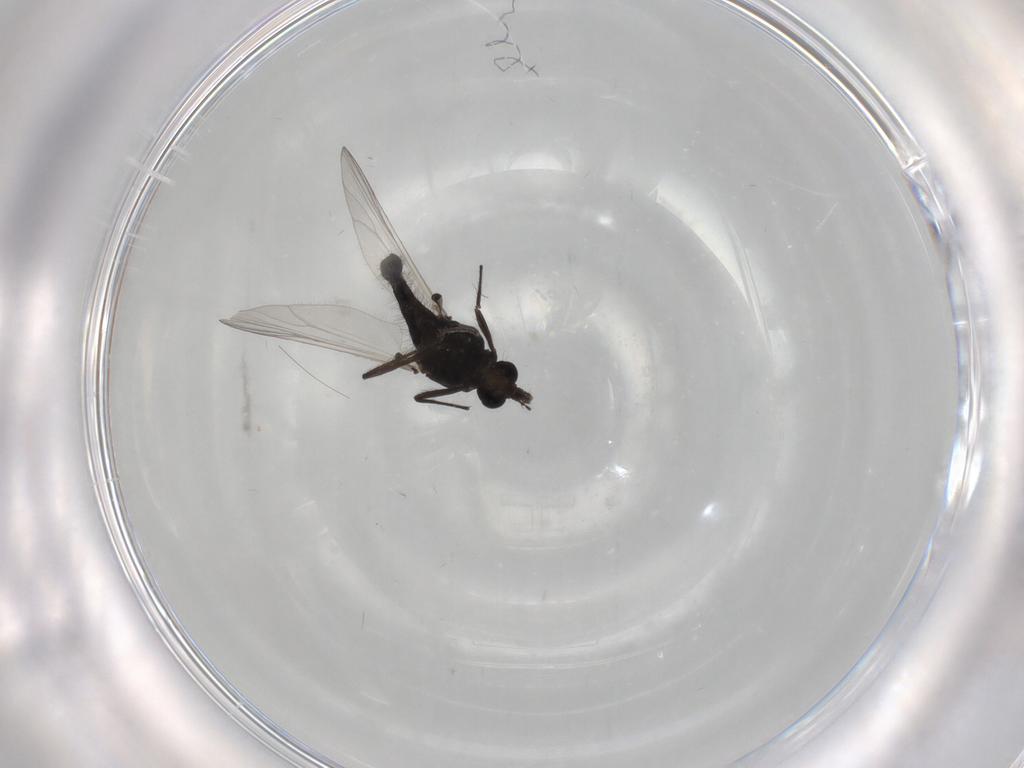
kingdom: Animalia
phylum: Arthropoda
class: Insecta
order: Diptera
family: Chironomidae
